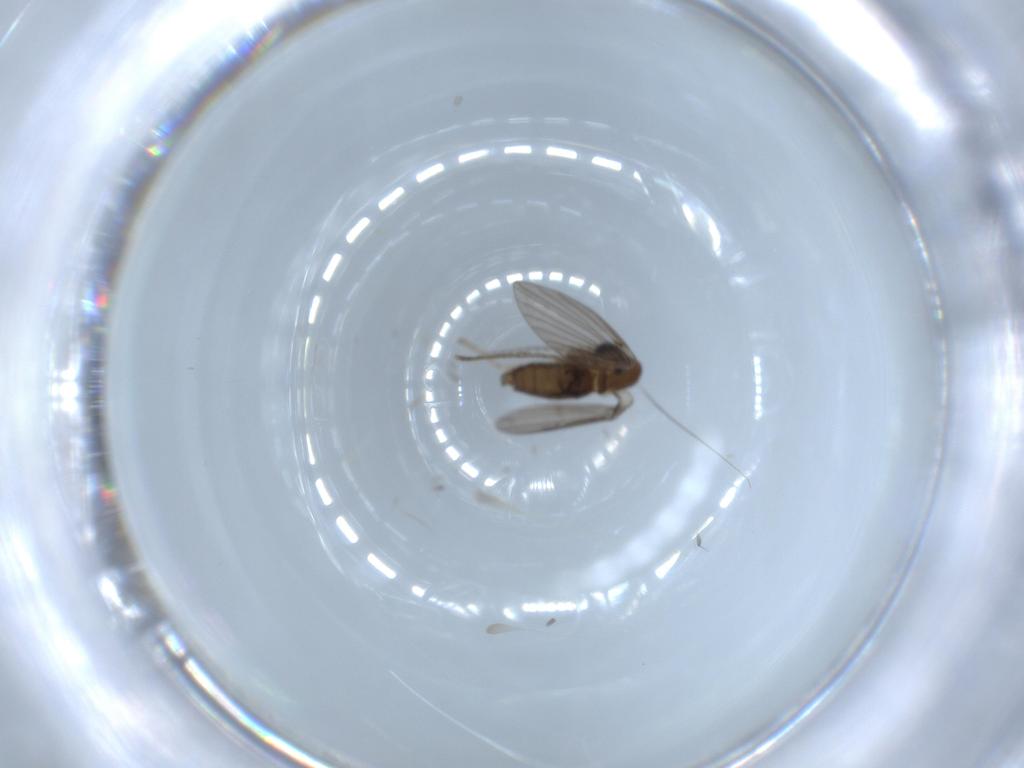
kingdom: Animalia
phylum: Arthropoda
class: Insecta
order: Diptera
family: Psychodidae
